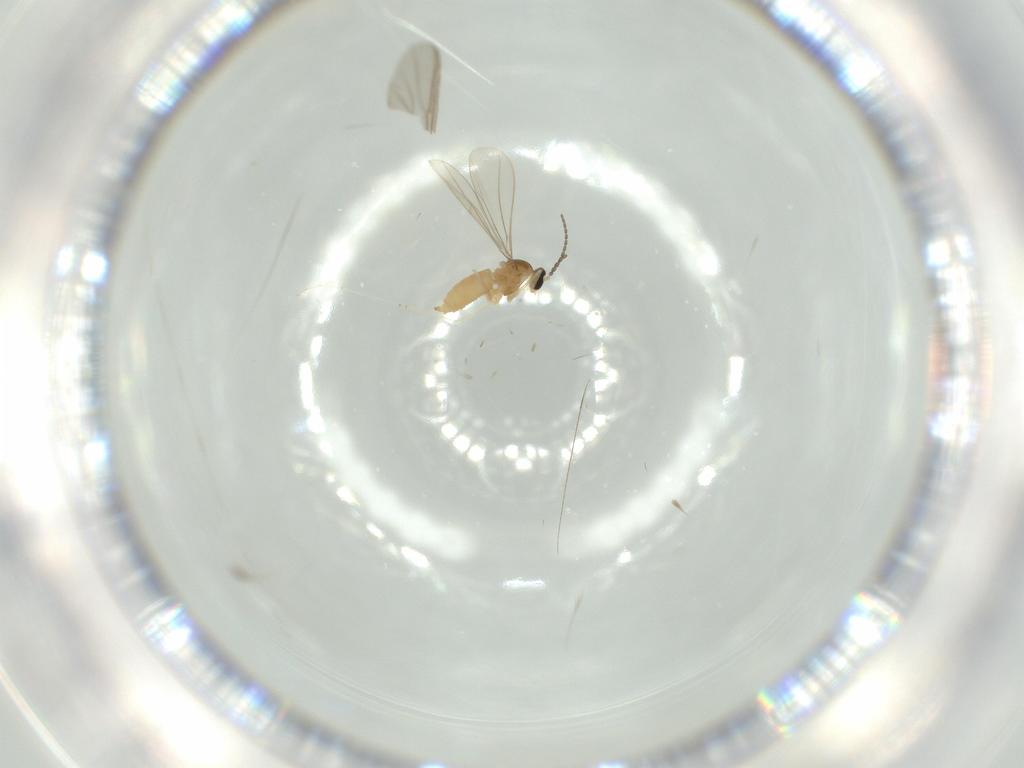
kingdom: Animalia
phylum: Arthropoda
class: Insecta
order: Diptera
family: Cecidomyiidae
